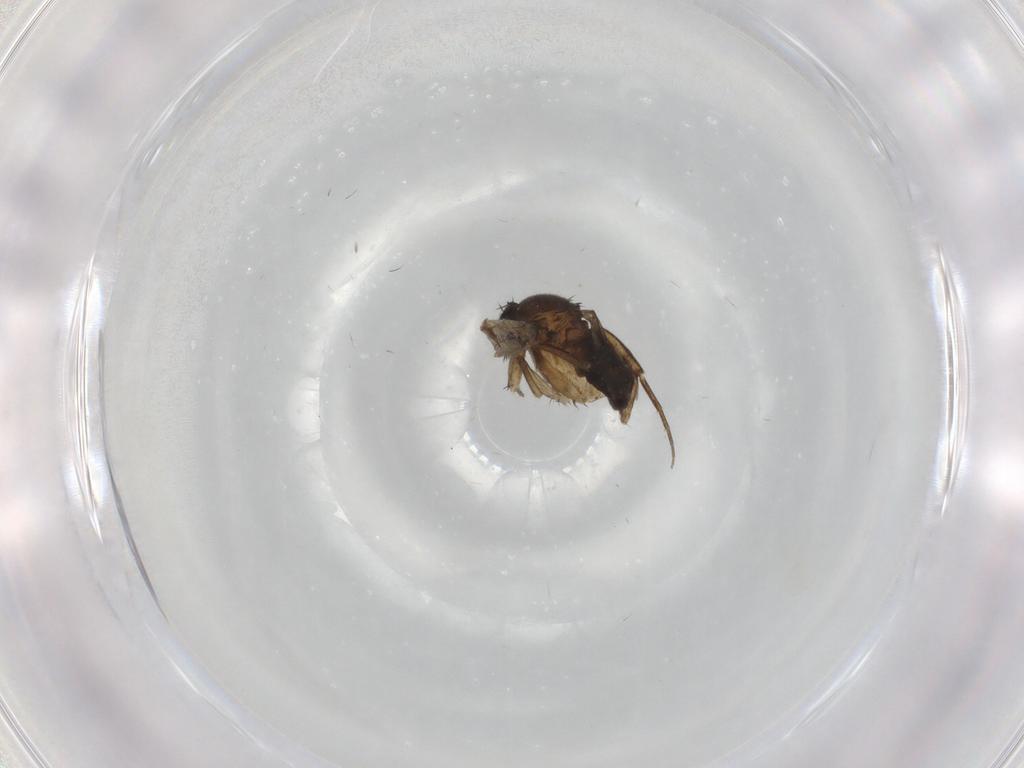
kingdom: Animalia
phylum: Arthropoda
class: Insecta
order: Diptera
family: Phoridae
